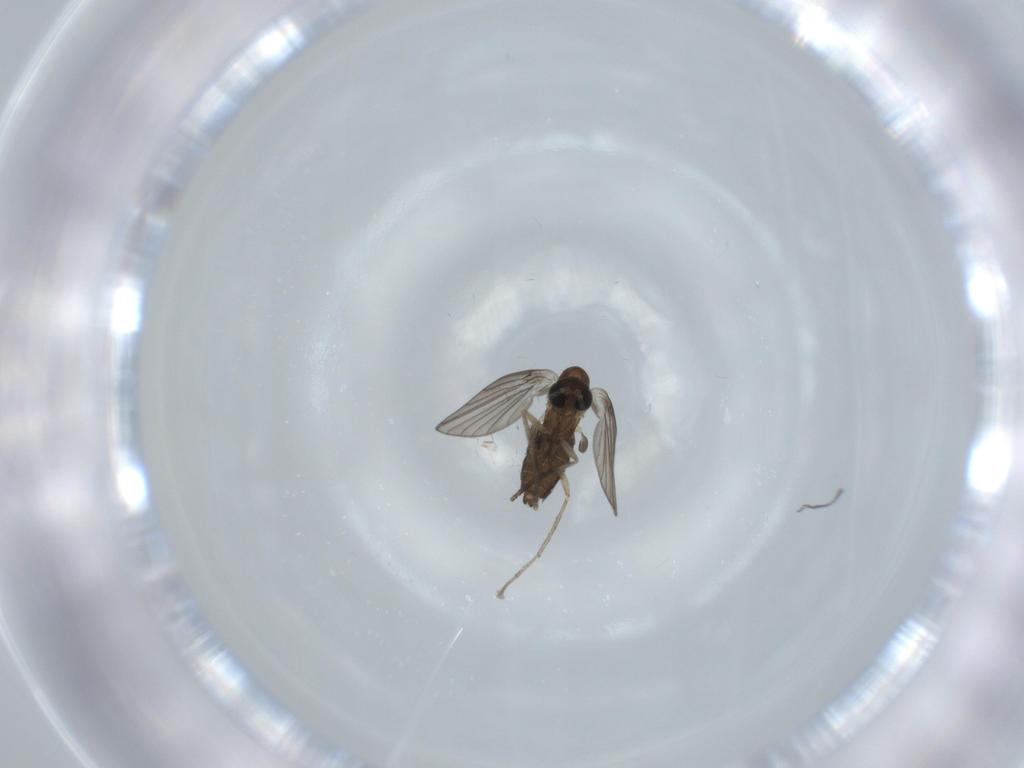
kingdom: Animalia
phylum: Arthropoda
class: Insecta
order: Diptera
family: Psychodidae
